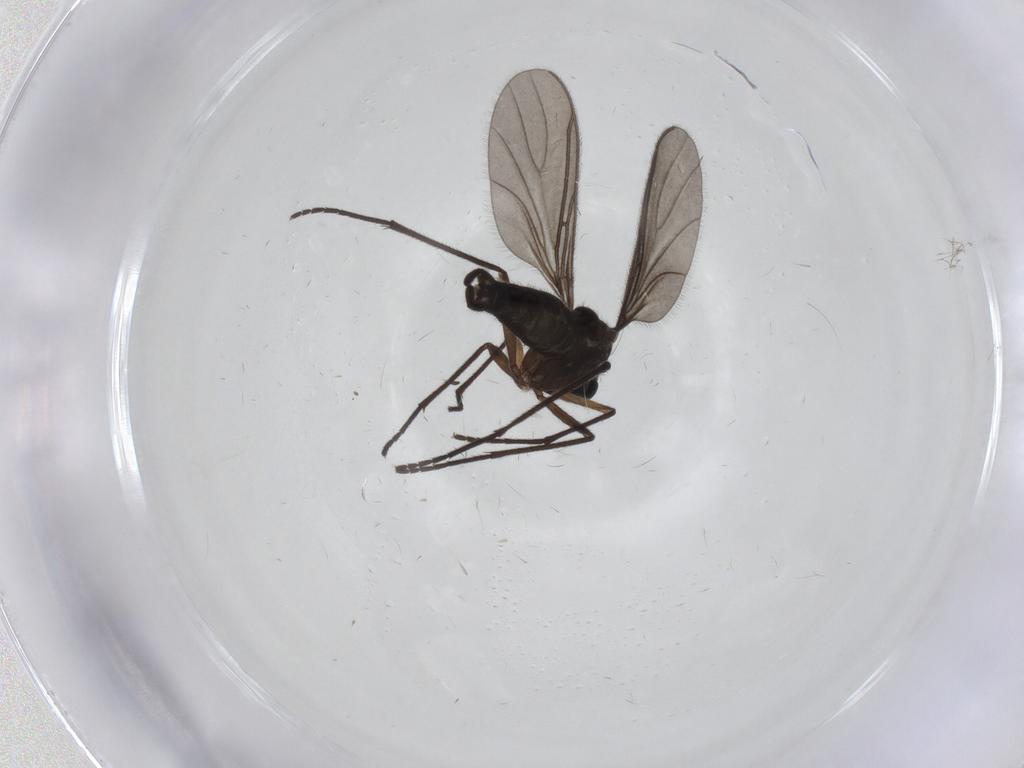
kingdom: Animalia
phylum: Arthropoda
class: Insecta
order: Diptera
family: Sciaridae
